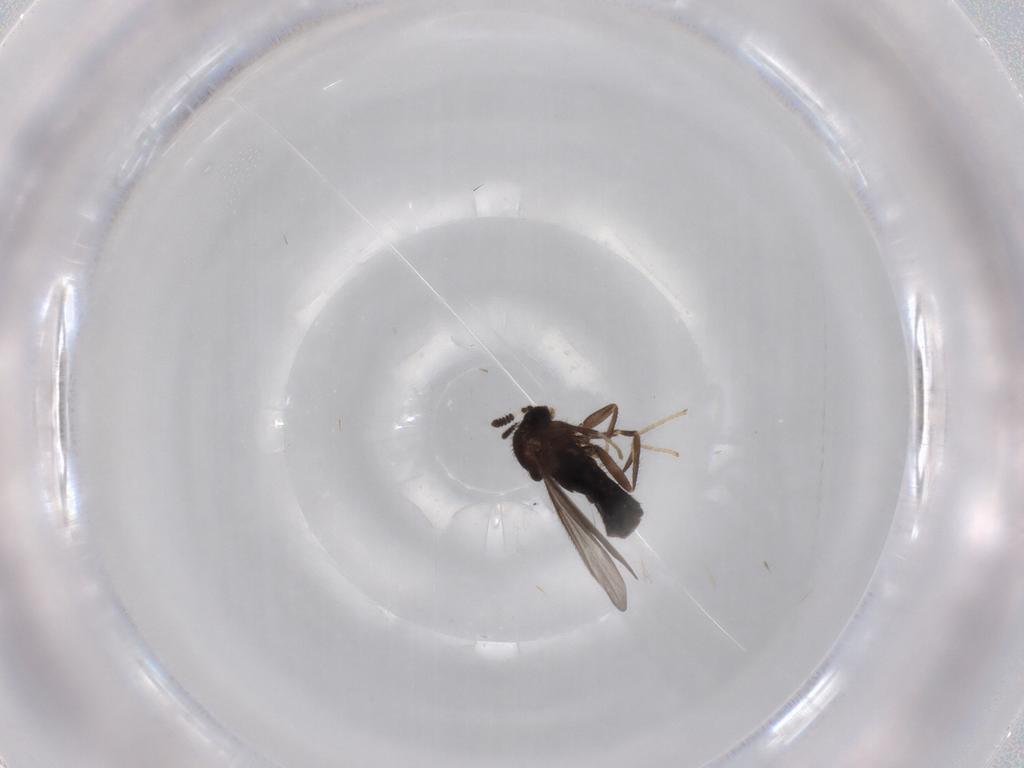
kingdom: Animalia
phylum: Arthropoda
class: Insecta
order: Diptera
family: Scatopsidae
